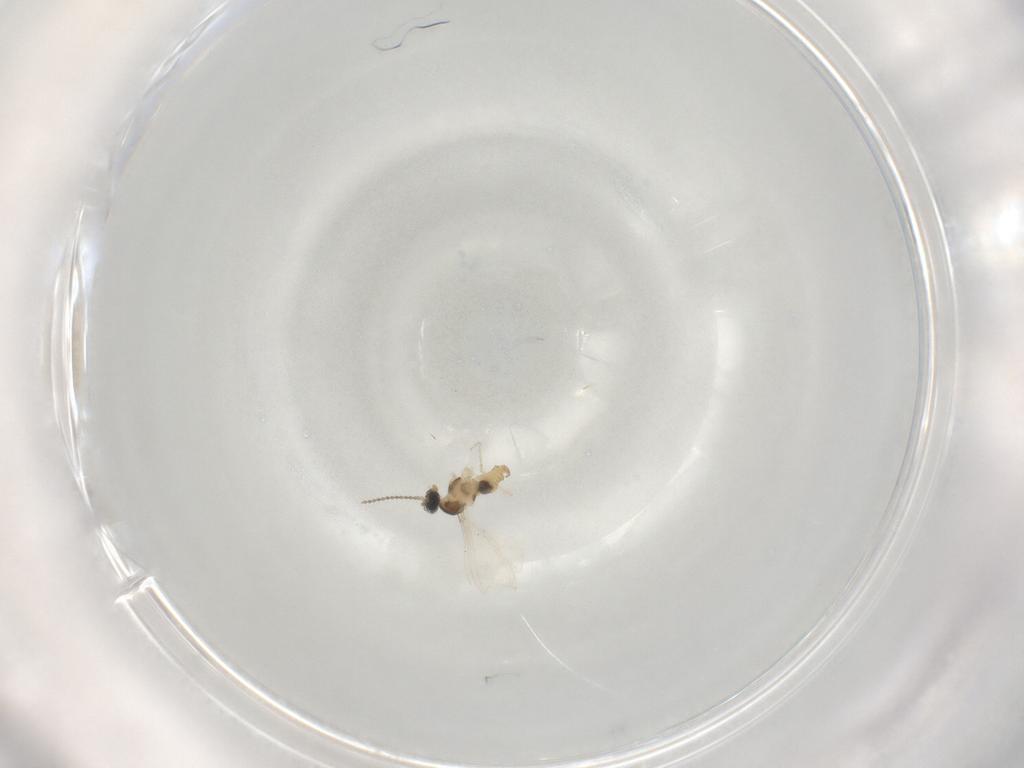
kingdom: Animalia
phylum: Arthropoda
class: Insecta
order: Diptera
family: Cecidomyiidae
